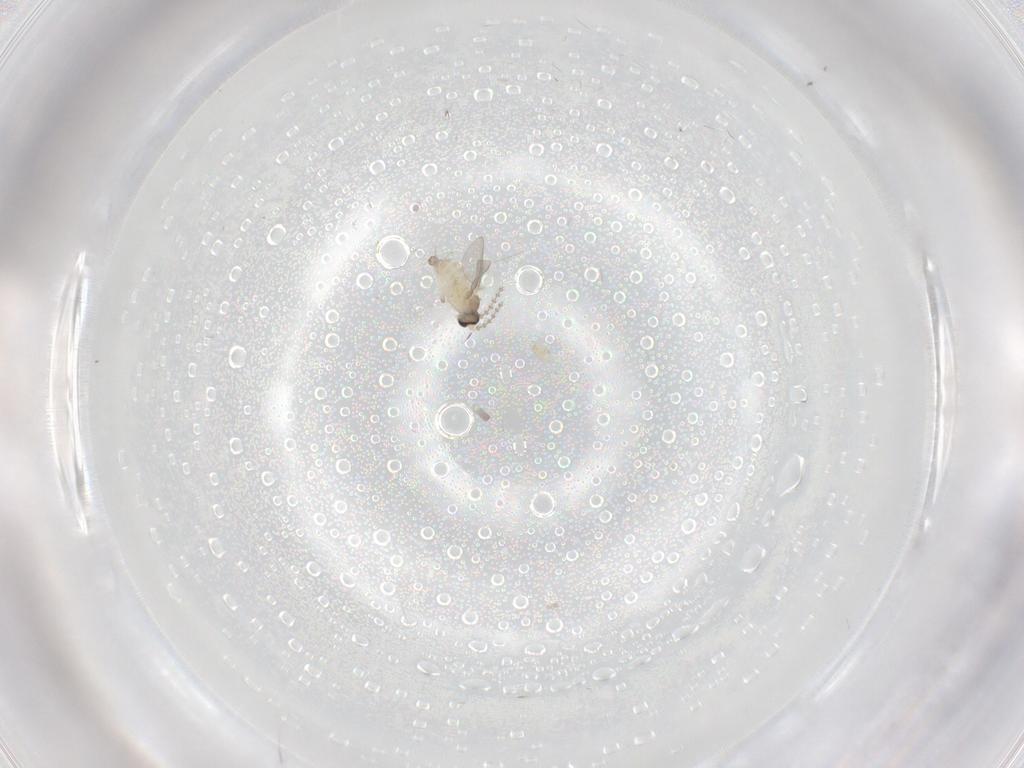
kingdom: Animalia
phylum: Arthropoda
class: Insecta
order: Diptera
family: Cecidomyiidae
